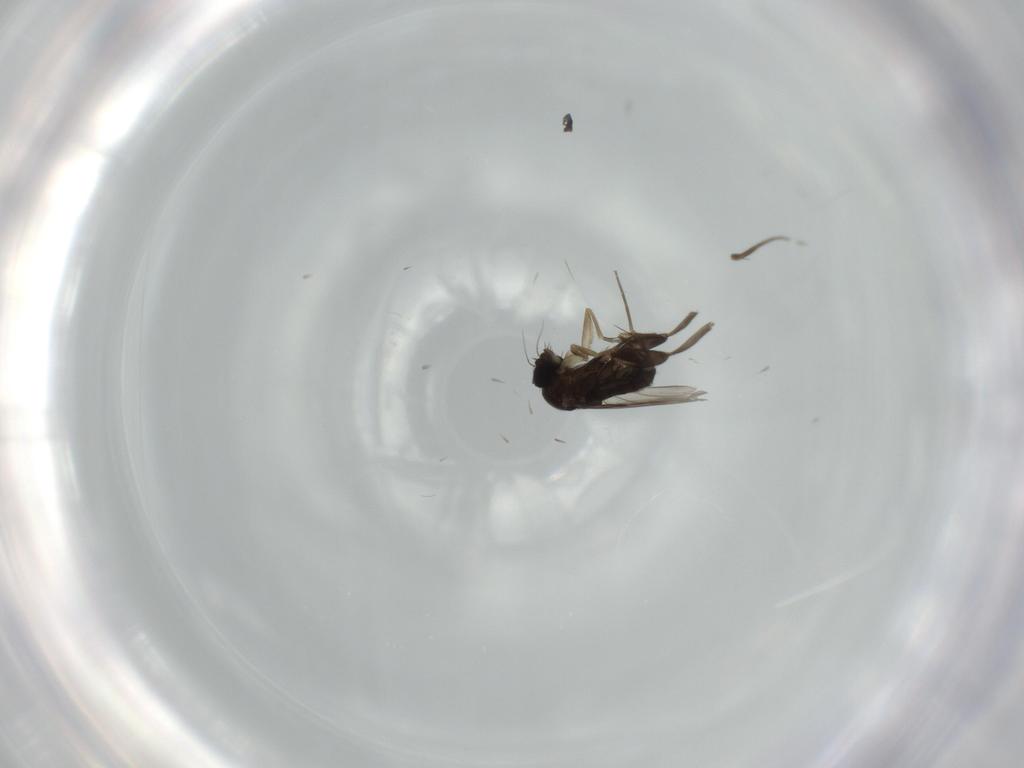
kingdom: Animalia
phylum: Arthropoda
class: Insecta
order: Diptera
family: Phoridae
